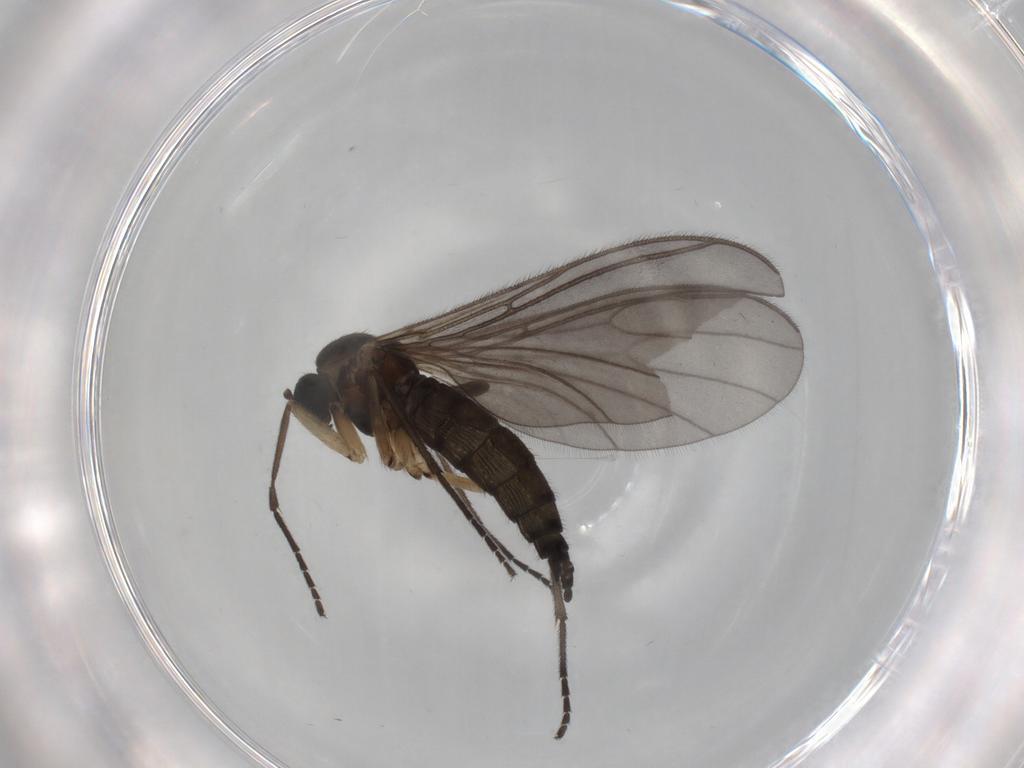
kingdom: Animalia
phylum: Arthropoda
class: Insecta
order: Diptera
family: Sciaridae
